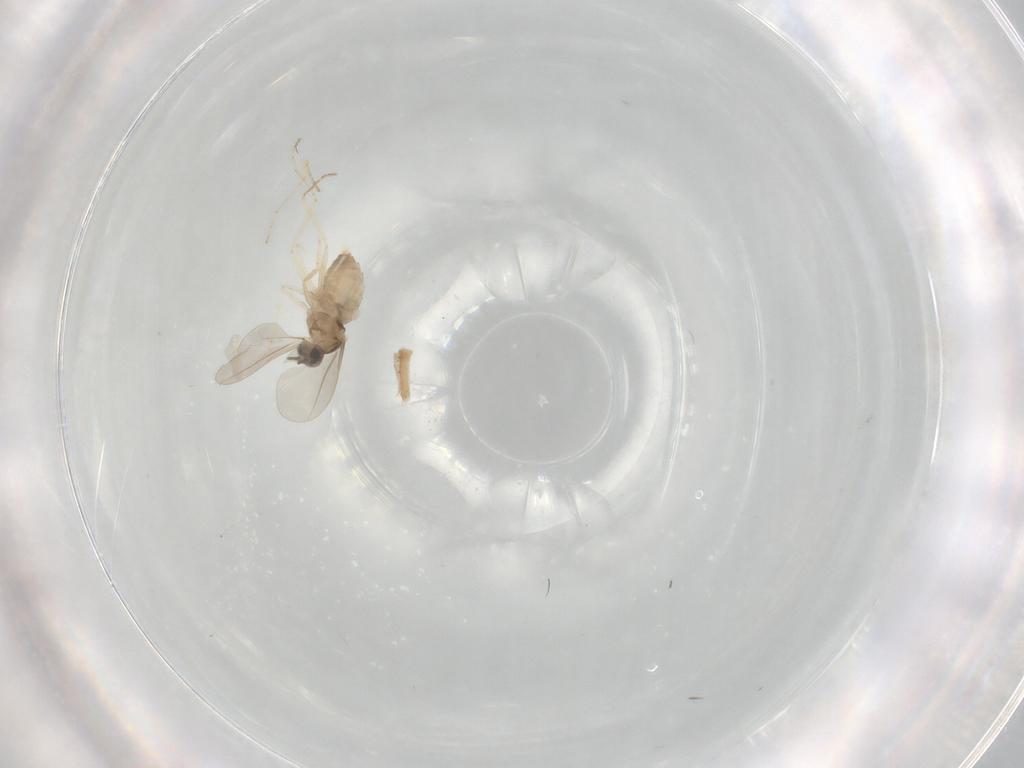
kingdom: Animalia
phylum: Arthropoda
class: Insecta
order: Diptera
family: Cecidomyiidae
